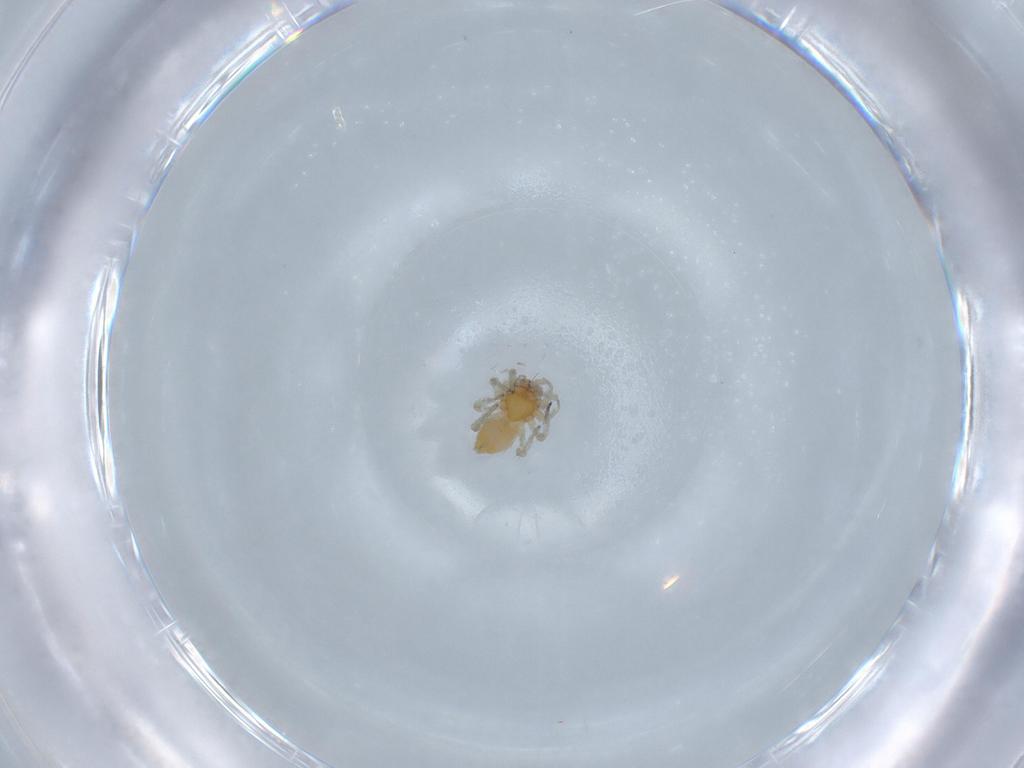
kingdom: Animalia
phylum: Arthropoda
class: Arachnida
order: Araneae
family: Dictynidae
